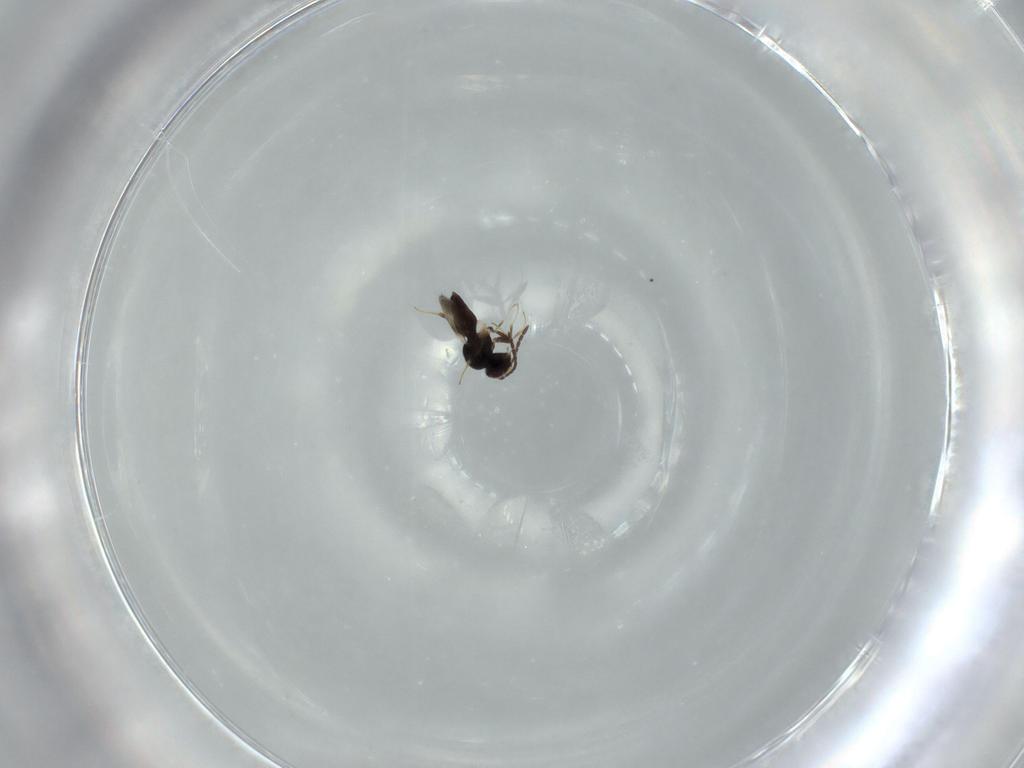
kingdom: Animalia
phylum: Arthropoda
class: Insecta
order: Hymenoptera
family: Ceraphronidae
